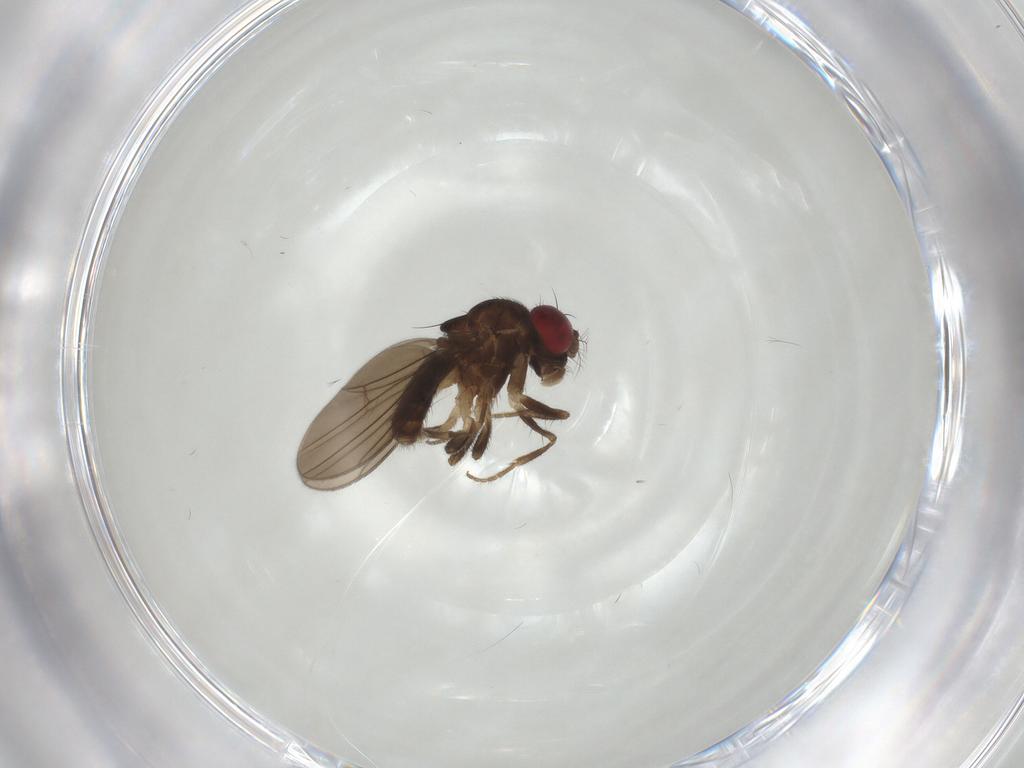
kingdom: Animalia
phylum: Arthropoda
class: Insecta
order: Diptera
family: Drosophilidae
